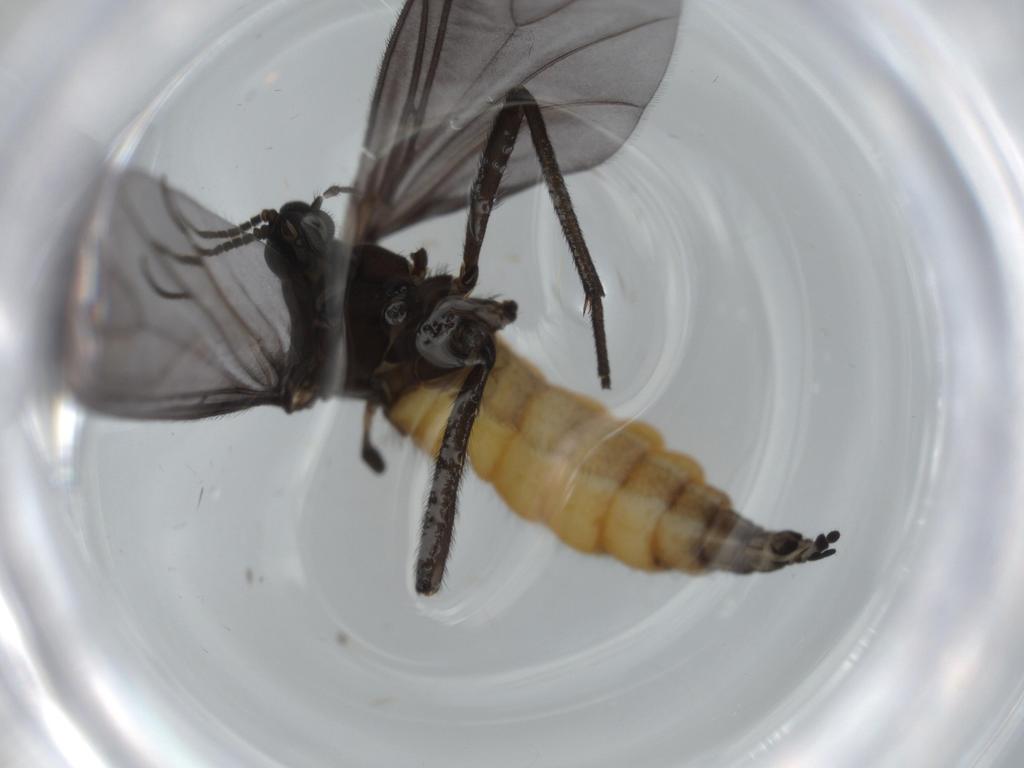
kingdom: Animalia
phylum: Arthropoda
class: Insecta
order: Diptera
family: Cecidomyiidae
